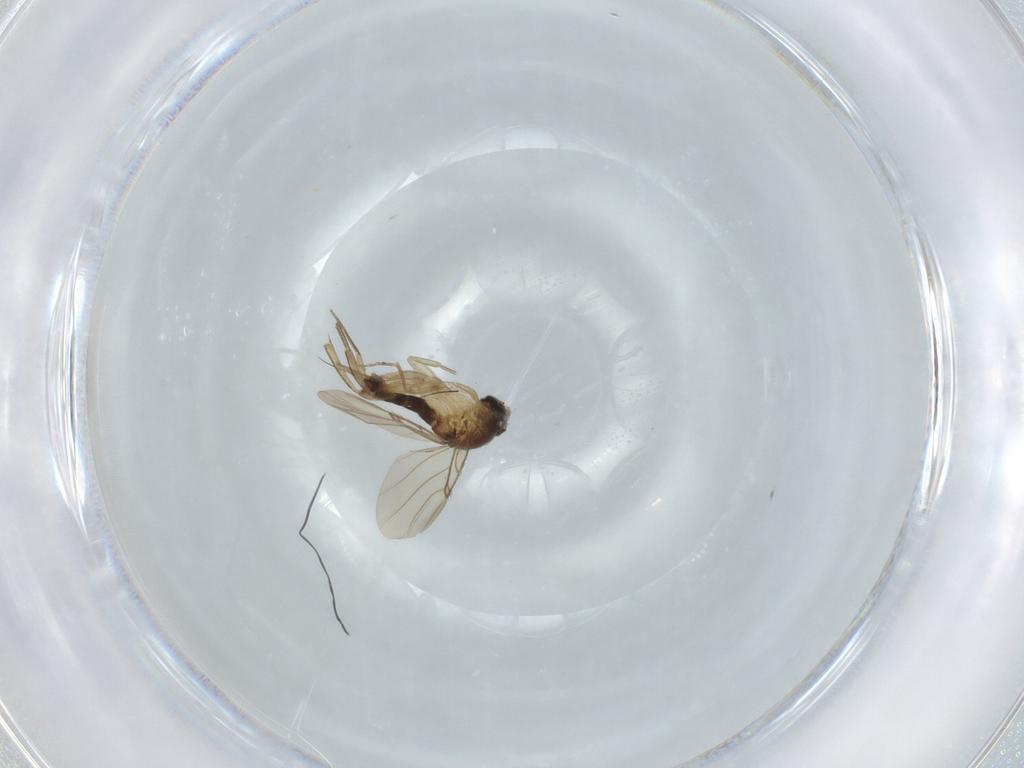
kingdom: Animalia
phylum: Arthropoda
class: Insecta
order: Diptera
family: Phoridae
